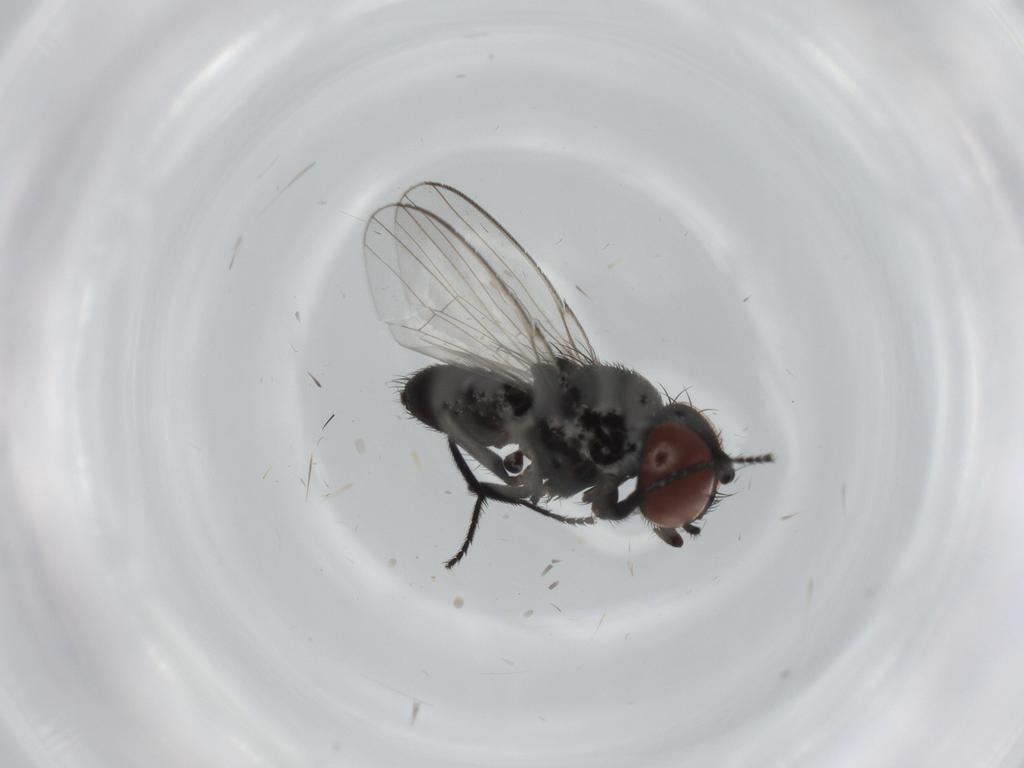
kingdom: Animalia
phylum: Arthropoda
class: Insecta
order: Diptera
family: Milichiidae
